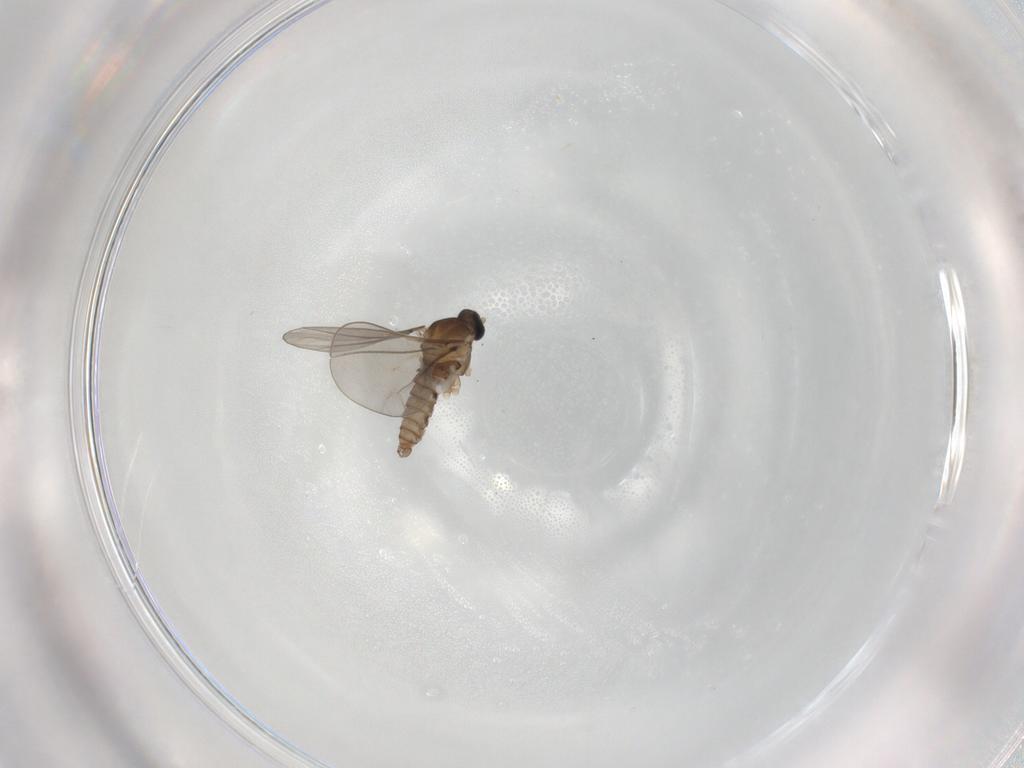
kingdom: Animalia
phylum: Arthropoda
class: Insecta
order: Diptera
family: Cecidomyiidae
